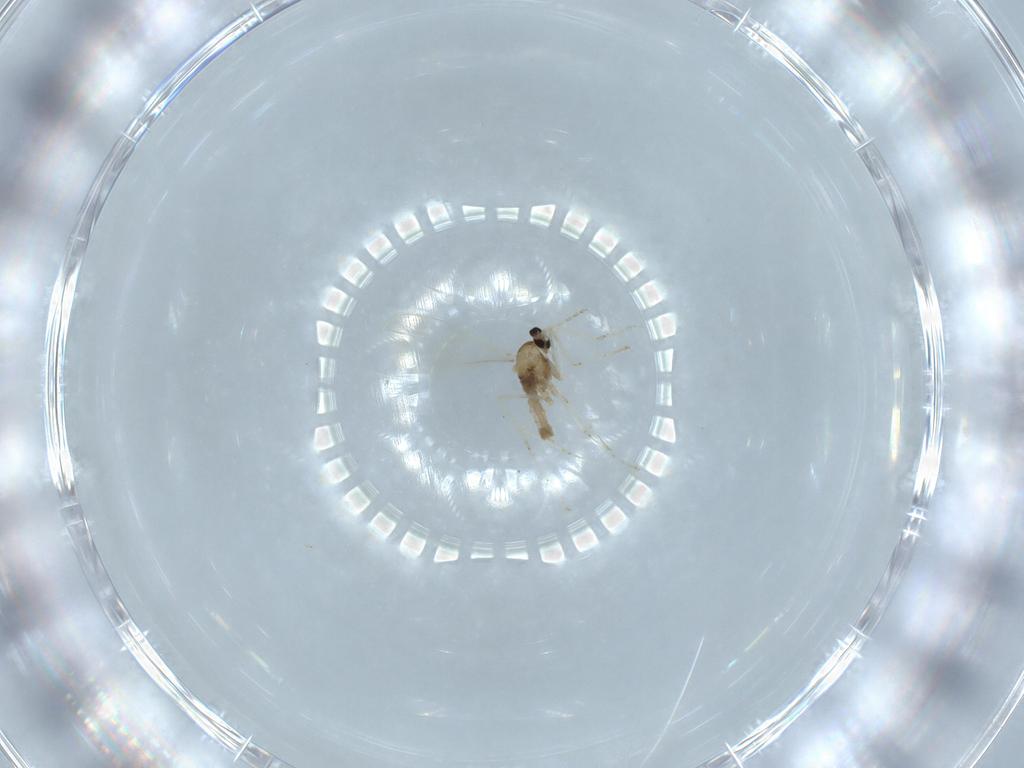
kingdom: Animalia
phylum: Arthropoda
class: Insecta
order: Diptera
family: Cecidomyiidae
